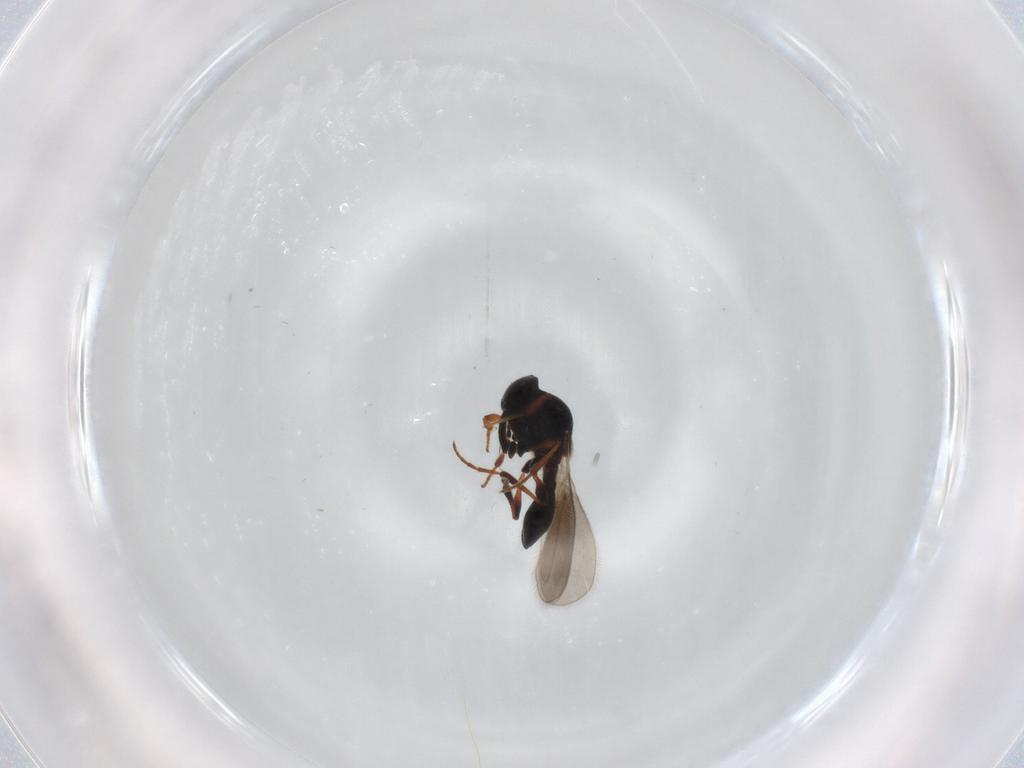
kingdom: Animalia
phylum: Arthropoda
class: Insecta
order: Hymenoptera
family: Platygastridae
